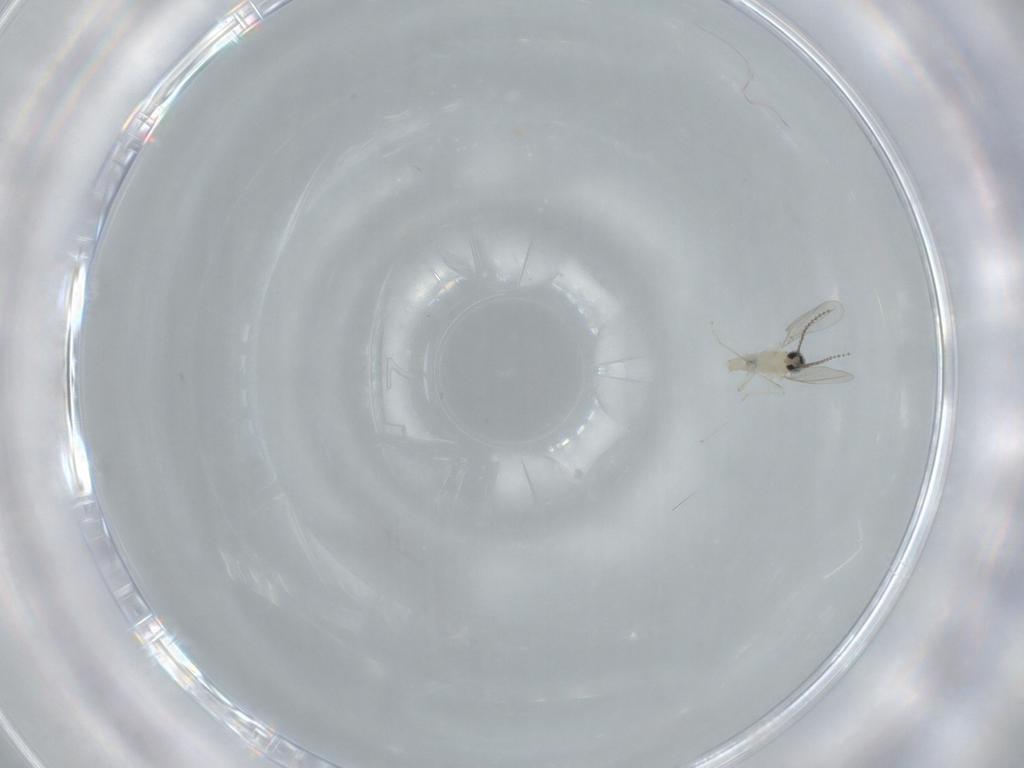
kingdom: Animalia
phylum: Arthropoda
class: Insecta
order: Diptera
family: Cecidomyiidae
